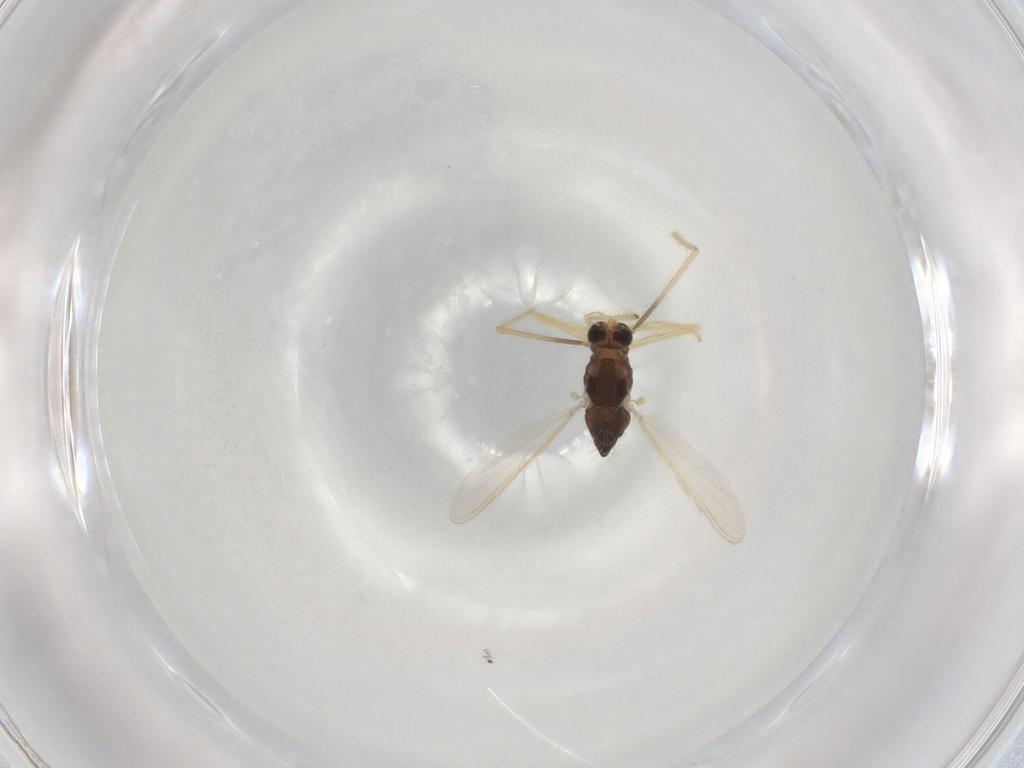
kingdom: Animalia
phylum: Arthropoda
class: Insecta
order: Diptera
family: Chironomidae
